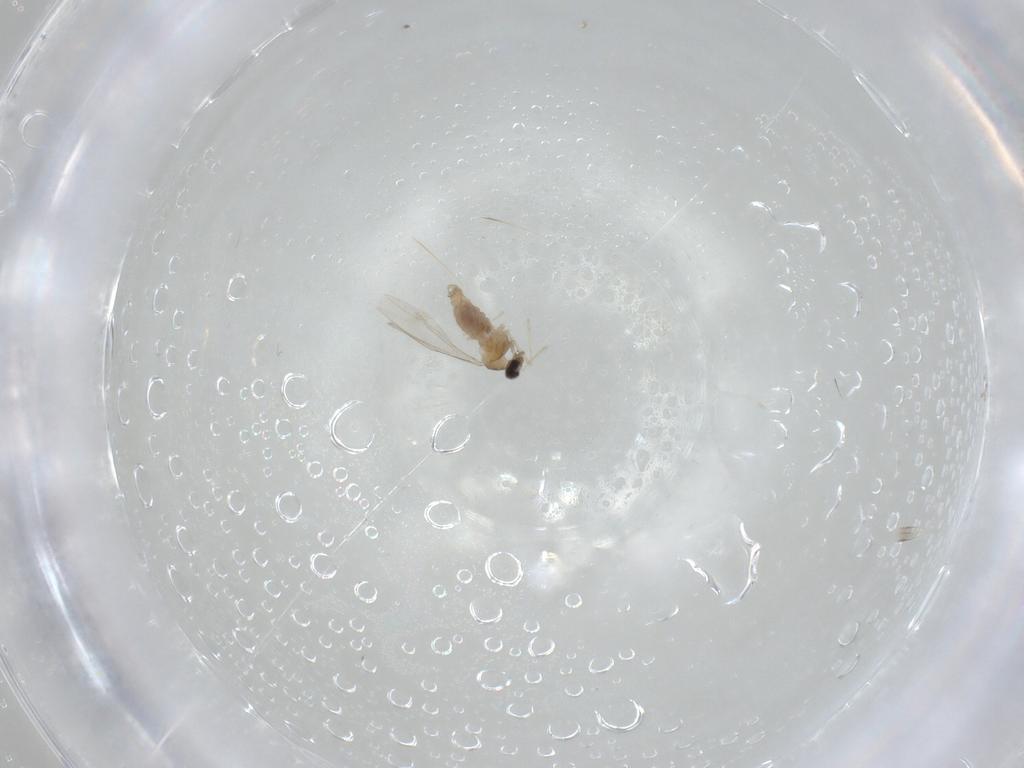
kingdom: Animalia
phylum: Arthropoda
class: Insecta
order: Diptera
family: Cecidomyiidae
